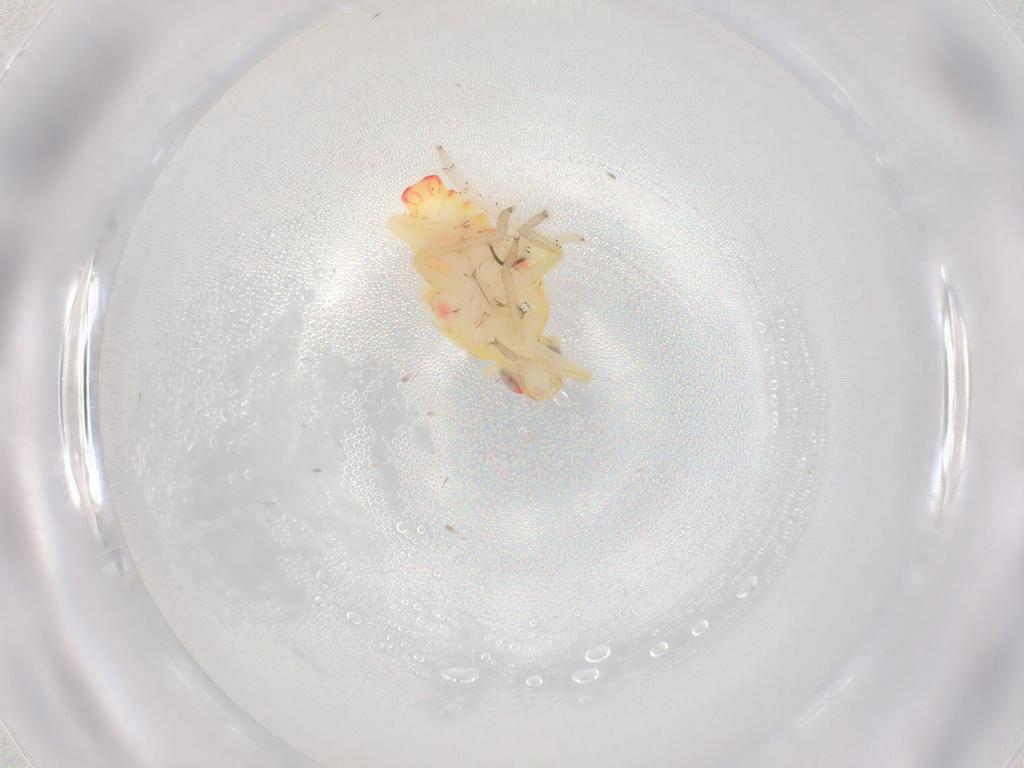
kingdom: Animalia
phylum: Arthropoda
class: Insecta
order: Hemiptera
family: Tropiduchidae
